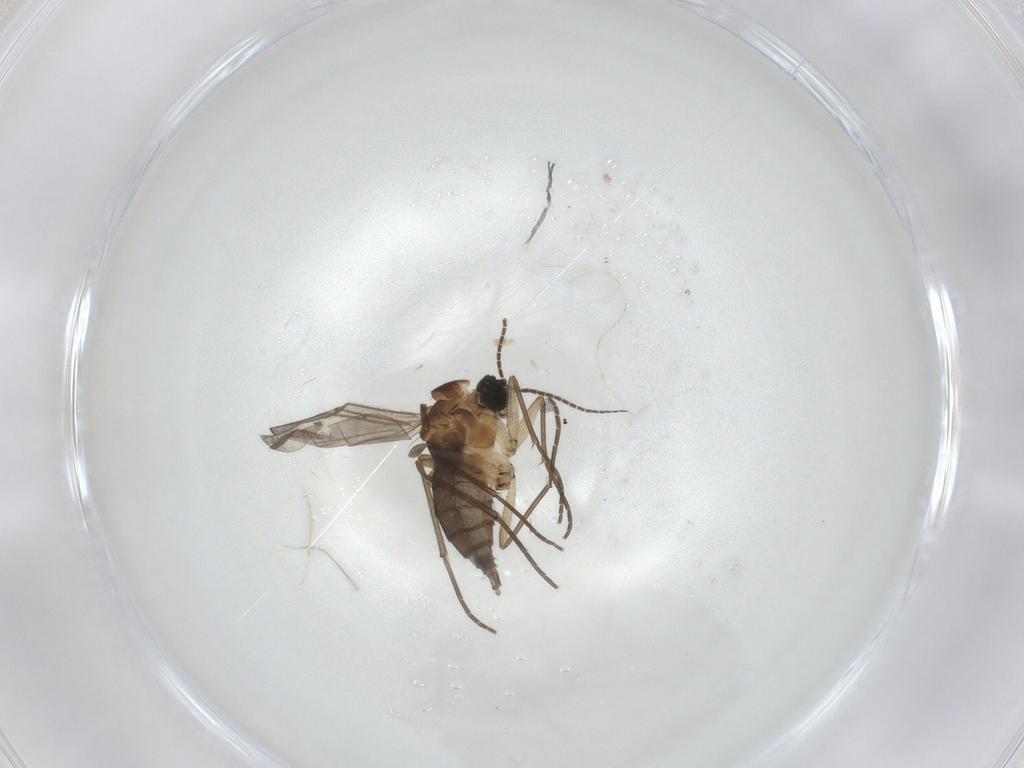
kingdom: Animalia
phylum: Arthropoda
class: Insecta
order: Diptera
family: Sciaridae
